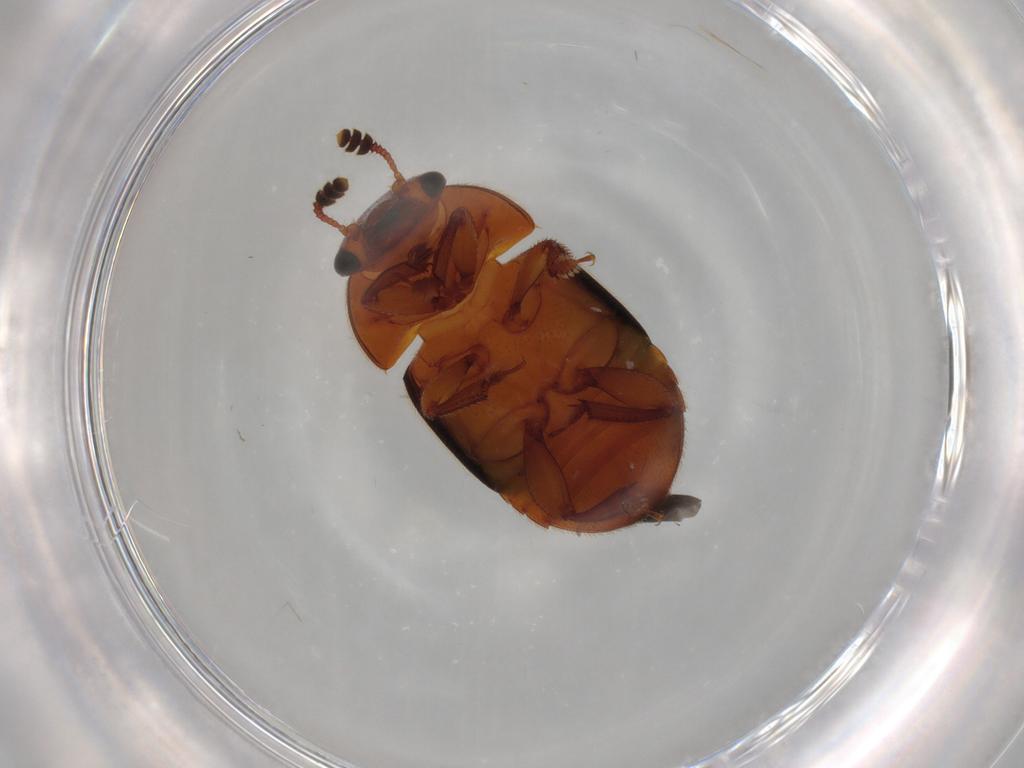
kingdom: Animalia
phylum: Arthropoda
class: Insecta
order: Coleoptera
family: Nitidulidae
